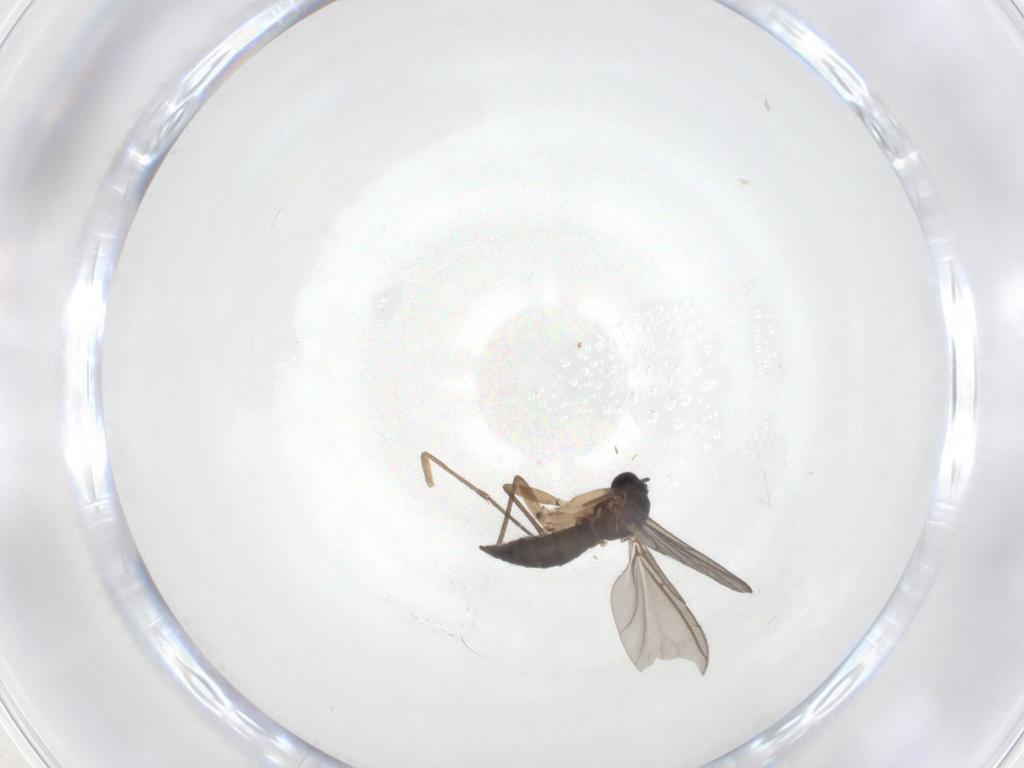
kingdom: Animalia
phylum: Arthropoda
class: Insecta
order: Diptera
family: Sciaridae
